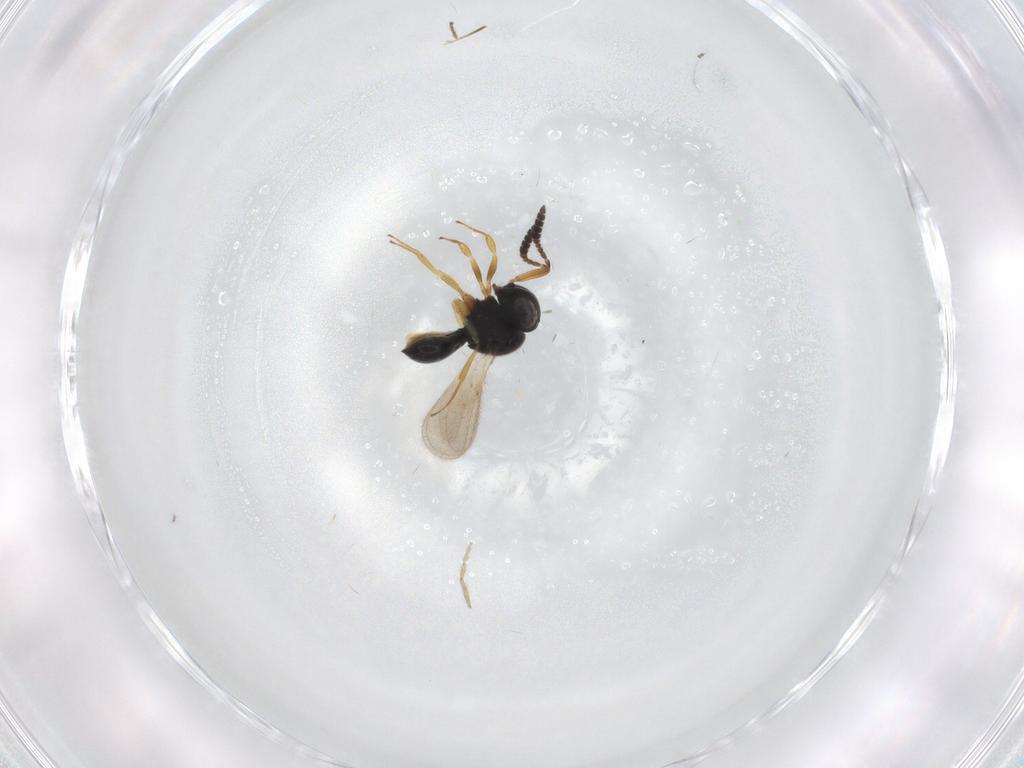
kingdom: Animalia
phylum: Arthropoda
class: Insecta
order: Hymenoptera
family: Scelionidae
